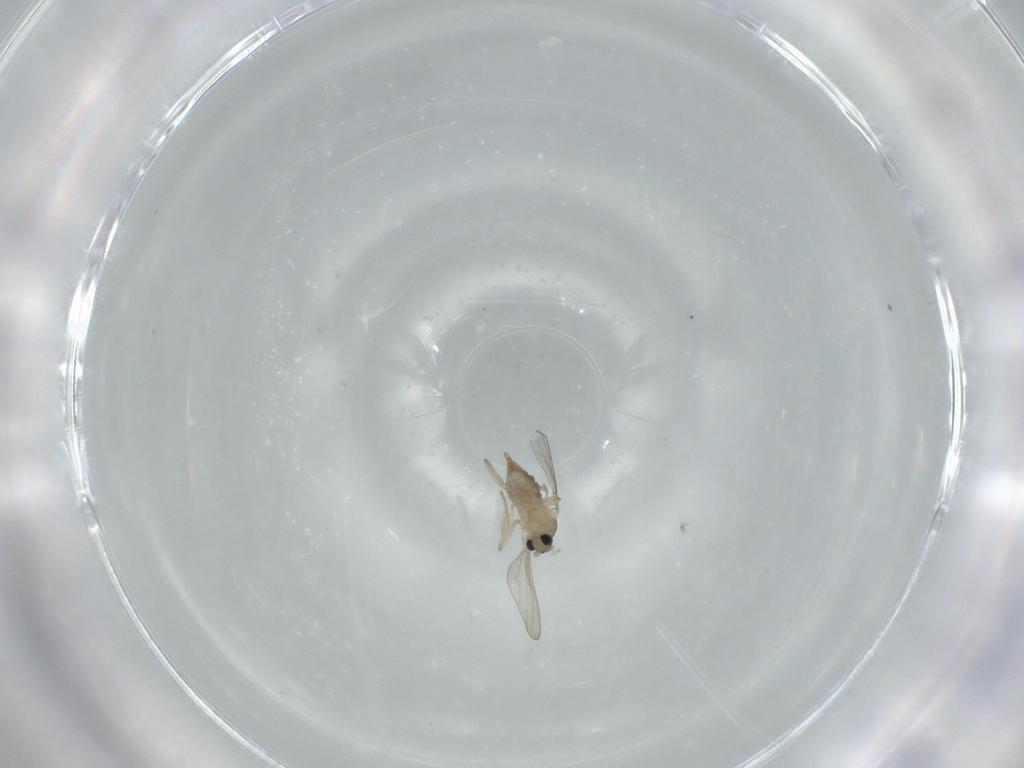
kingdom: Animalia
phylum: Arthropoda
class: Insecta
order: Diptera
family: Cecidomyiidae
